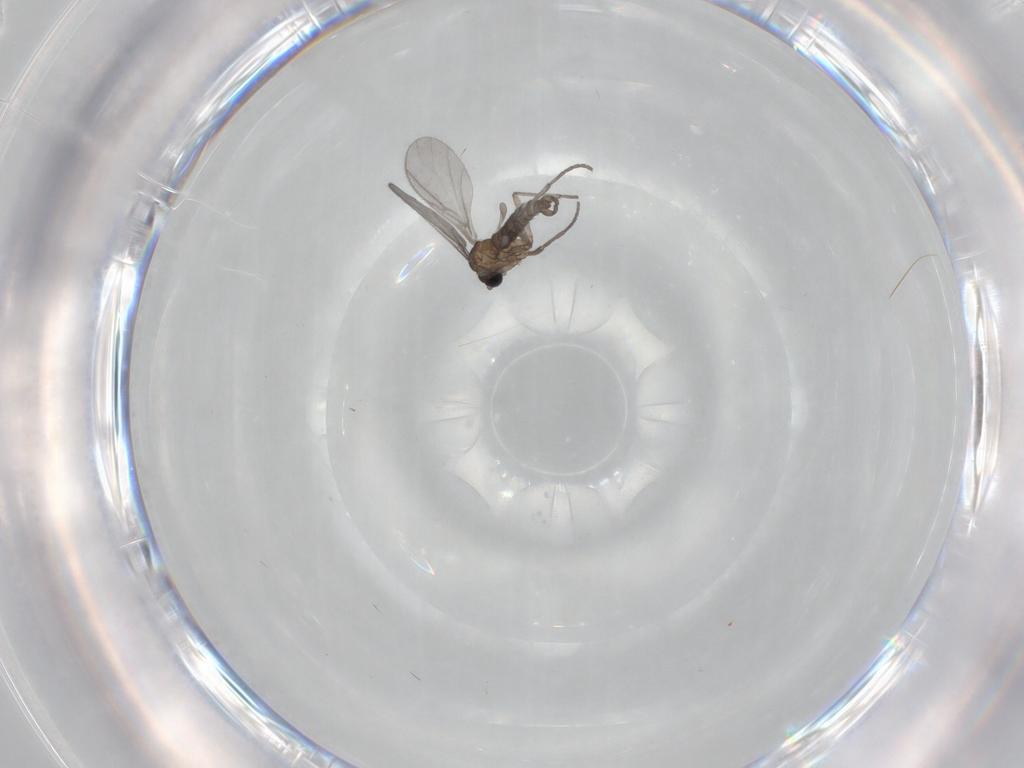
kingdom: Animalia
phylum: Arthropoda
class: Insecta
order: Diptera
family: Sciaridae
